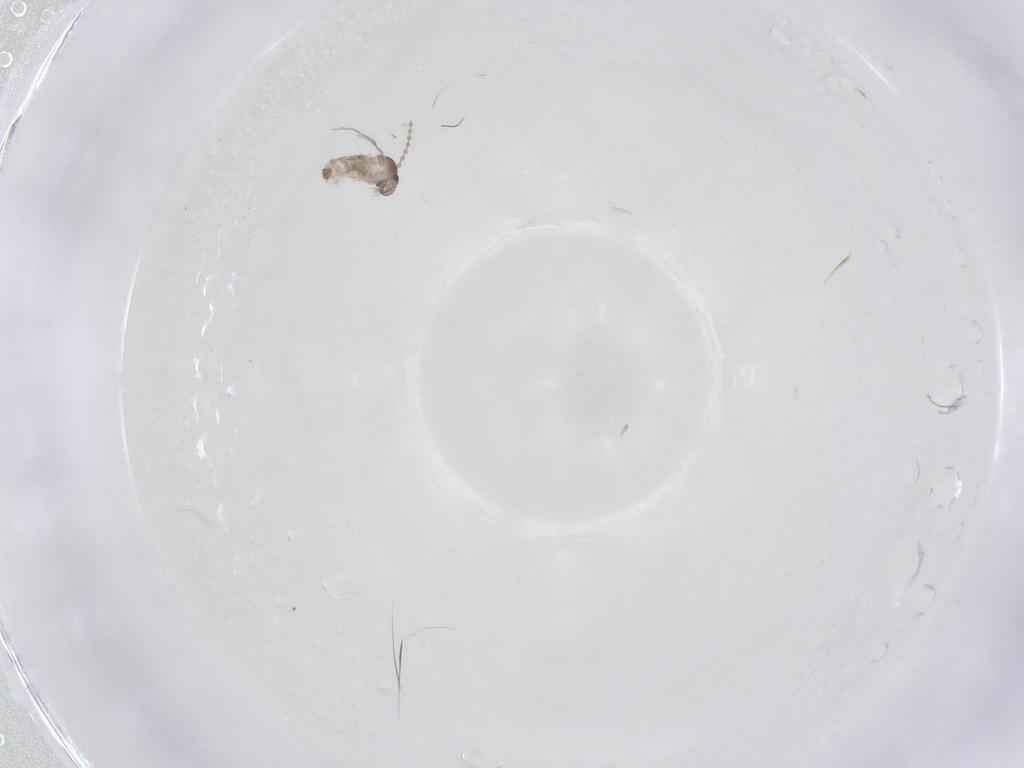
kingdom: Animalia
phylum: Arthropoda
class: Insecta
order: Diptera
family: Cecidomyiidae
